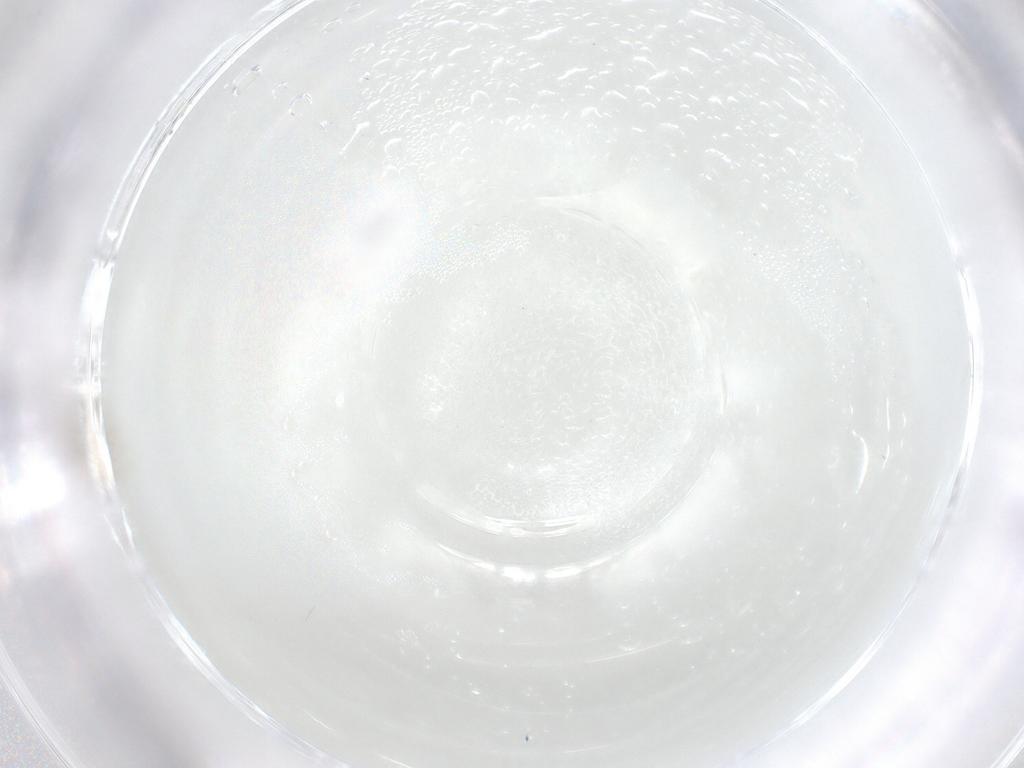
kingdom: Animalia
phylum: Arthropoda
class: Insecta
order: Diptera
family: Cecidomyiidae
